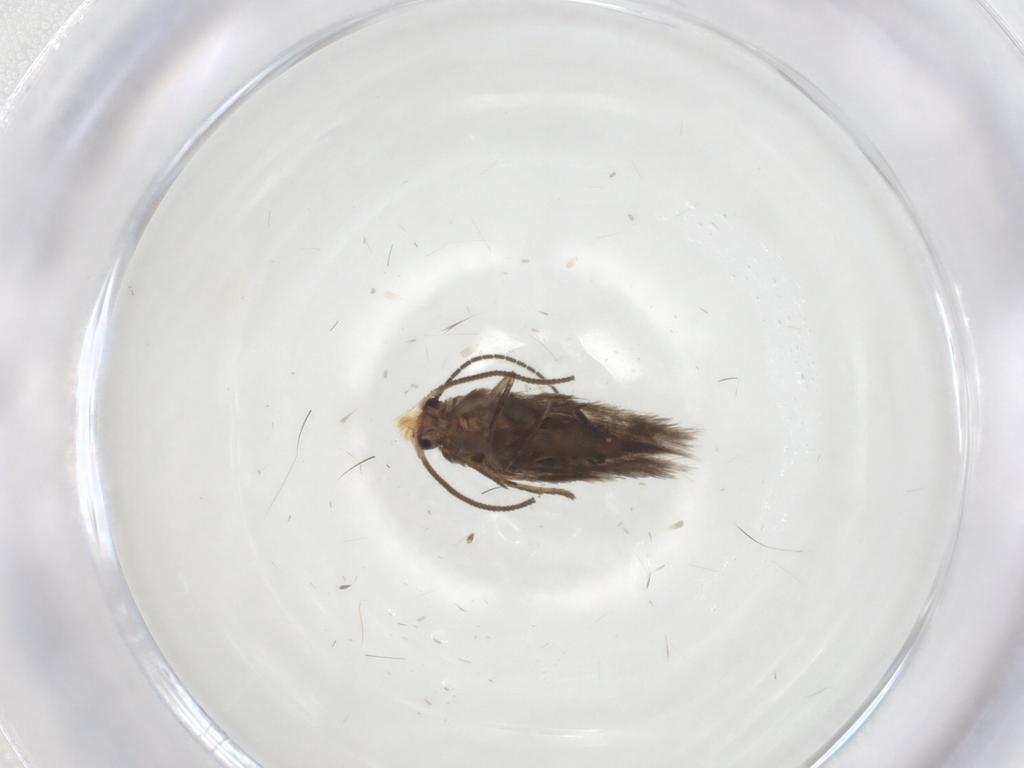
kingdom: Animalia
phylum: Arthropoda
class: Insecta
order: Lepidoptera
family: Nepticulidae
